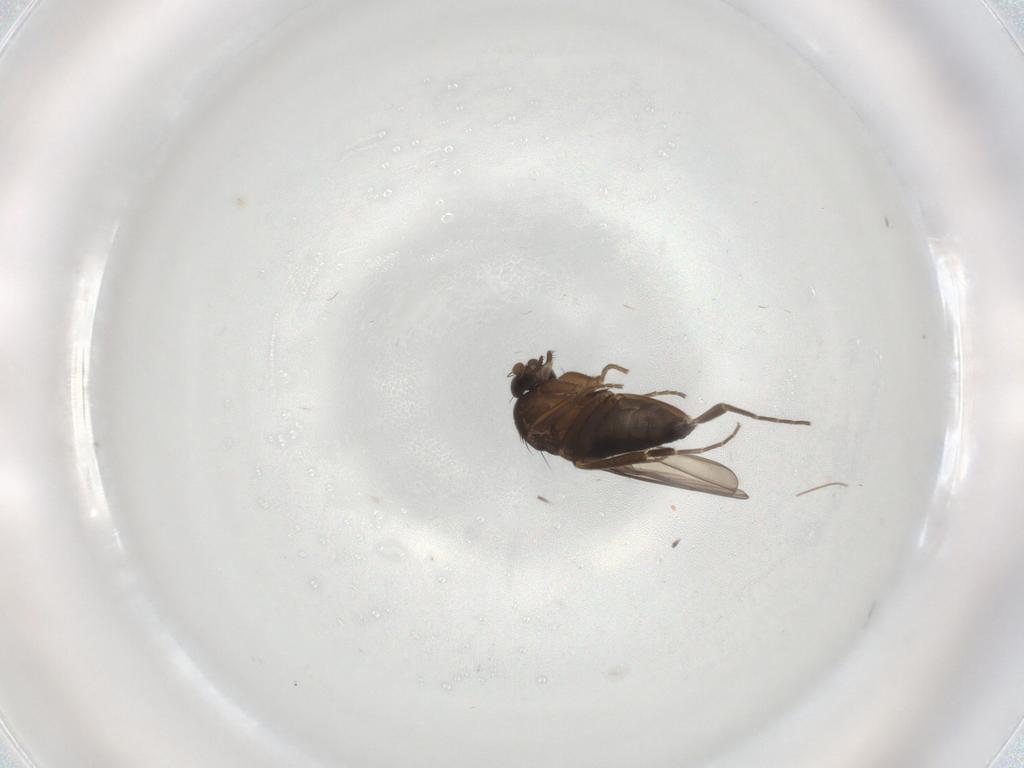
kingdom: Animalia
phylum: Arthropoda
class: Insecta
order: Diptera
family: Chironomidae
